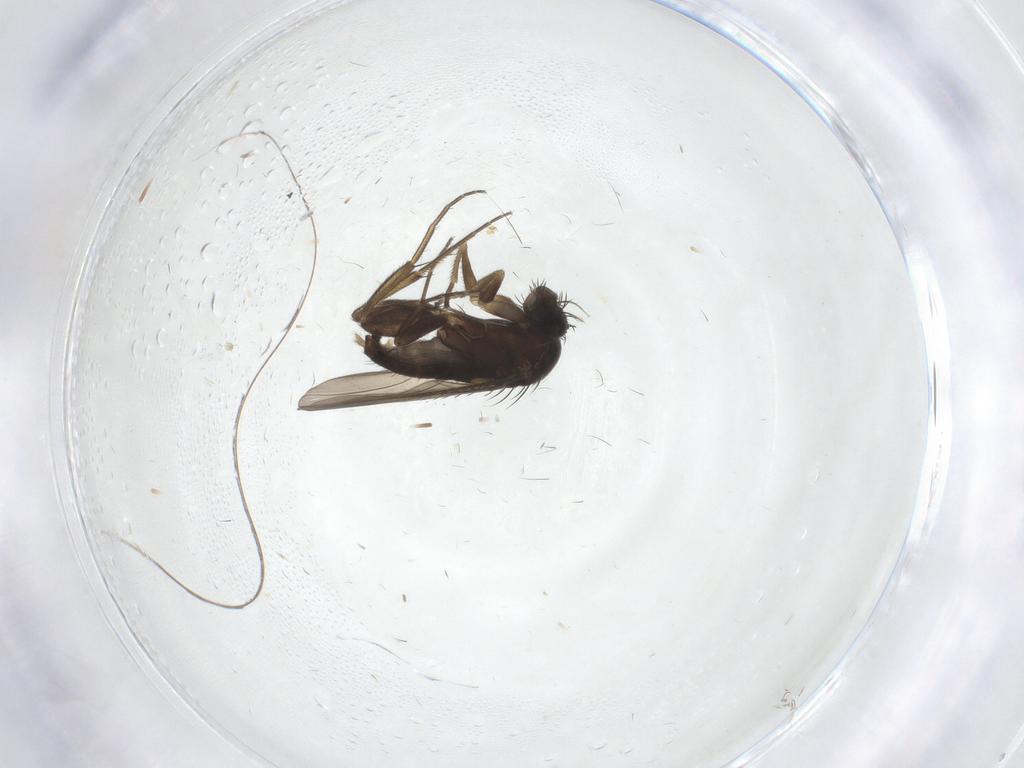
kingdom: Animalia
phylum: Arthropoda
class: Insecta
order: Diptera
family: Phoridae
